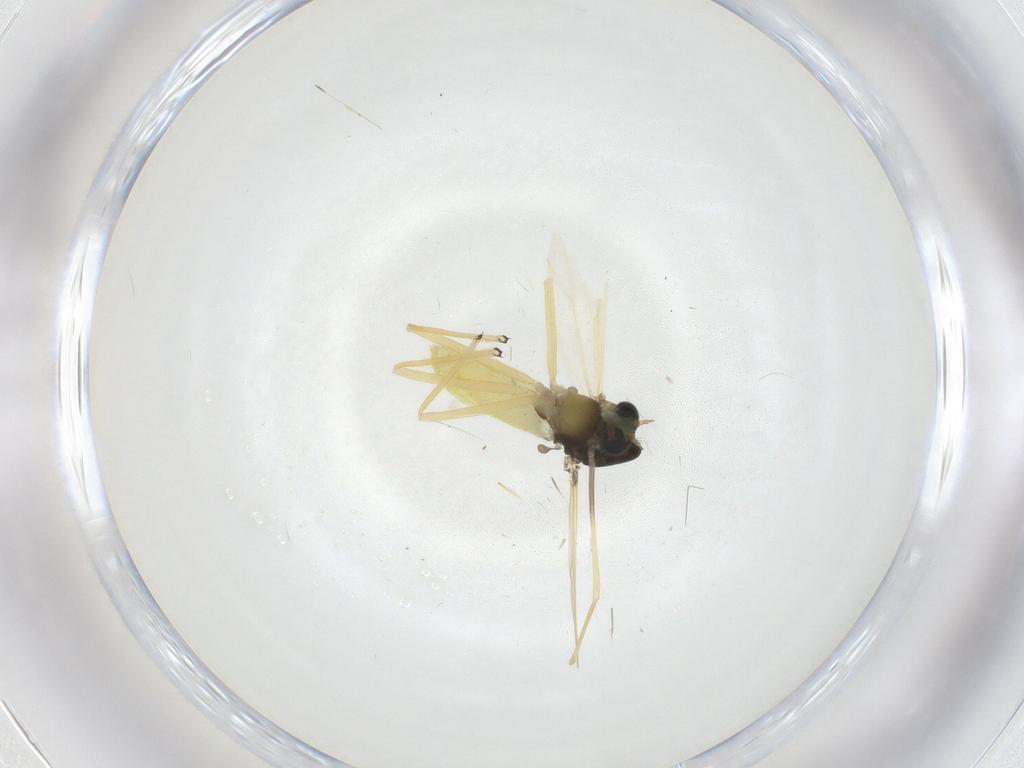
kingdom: Animalia
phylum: Arthropoda
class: Insecta
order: Diptera
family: Chironomidae
